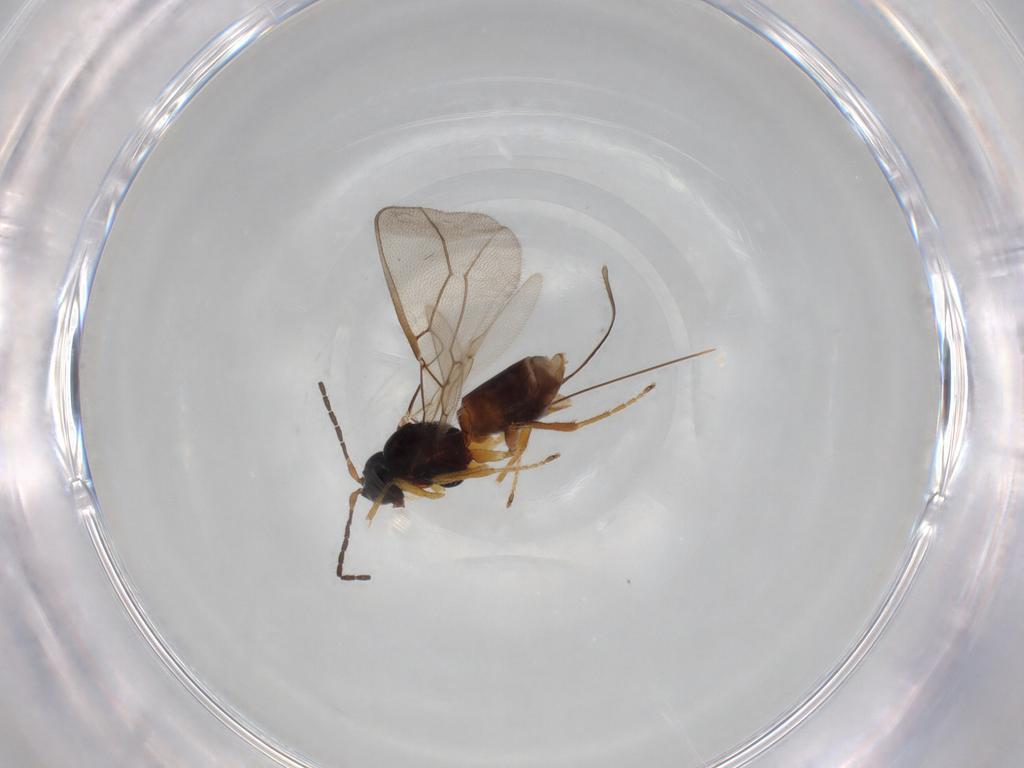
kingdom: Animalia
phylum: Arthropoda
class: Insecta
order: Hymenoptera
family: Braconidae
